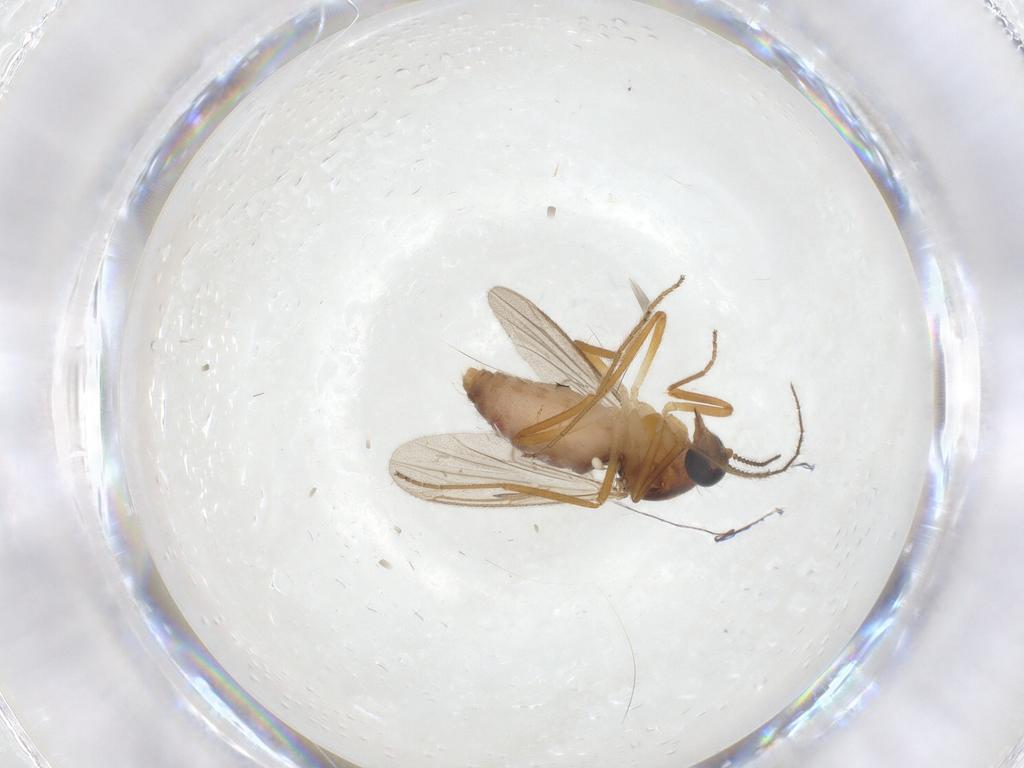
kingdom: Animalia
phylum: Arthropoda
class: Insecta
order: Diptera
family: Ceratopogonidae
